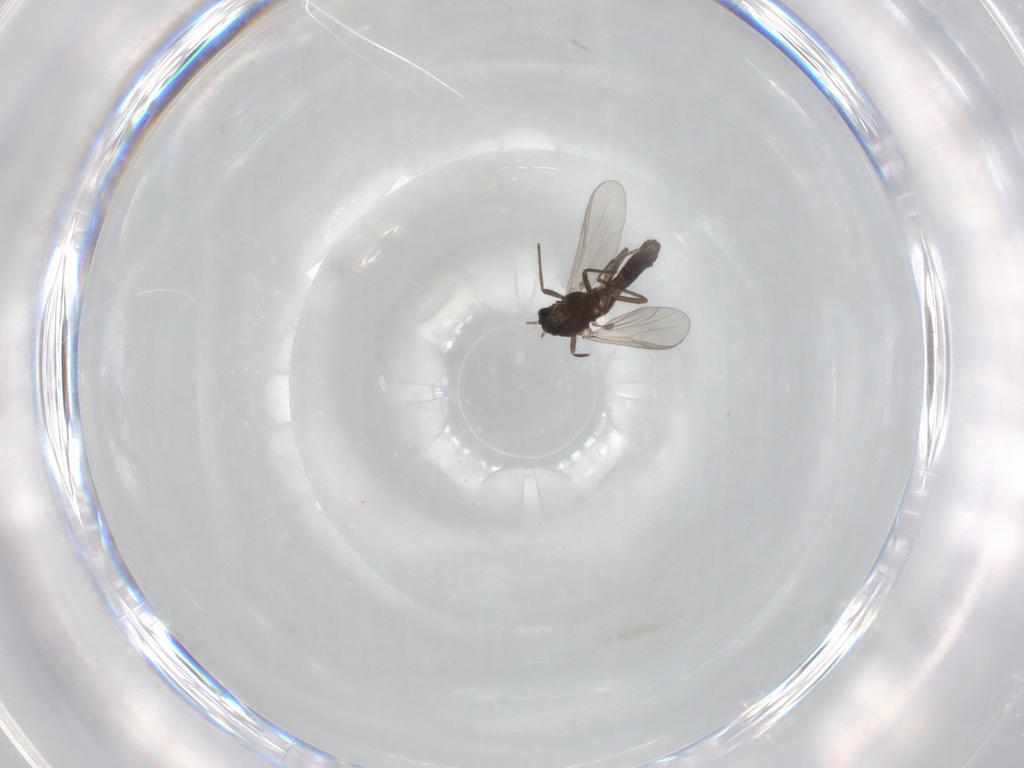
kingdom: Animalia
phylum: Arthropoda
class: Insecta
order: Diptera
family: Chironomidae
